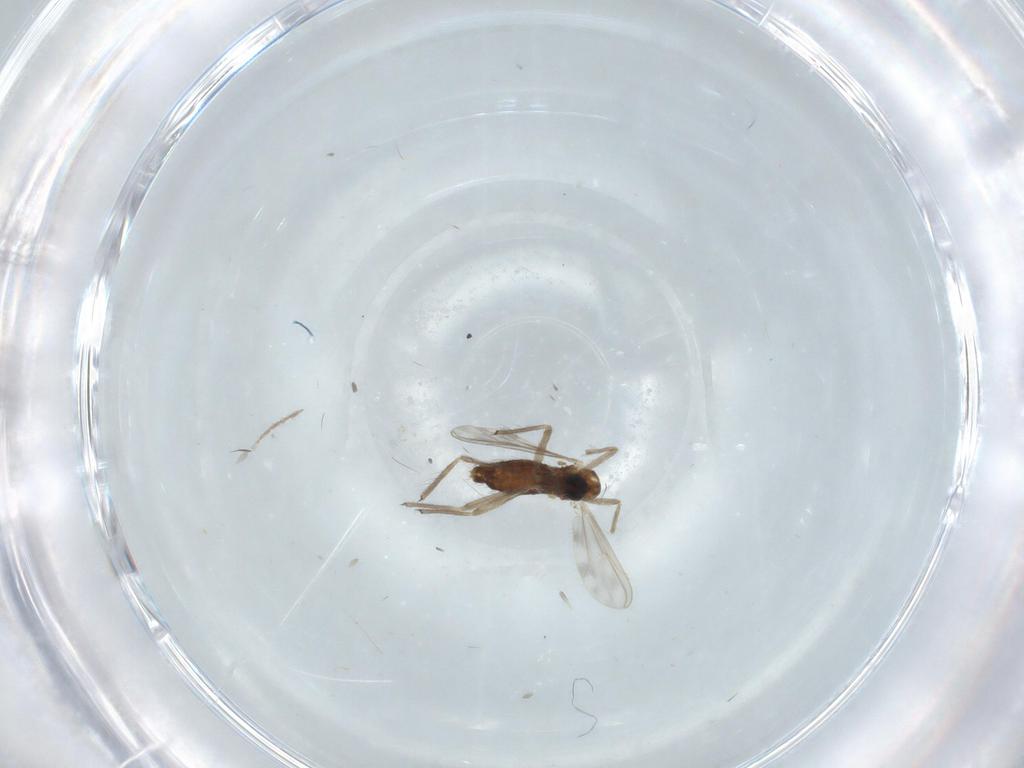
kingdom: Animalia
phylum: Arthropoda
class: Insecta
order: Diptera
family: Chironomidae
